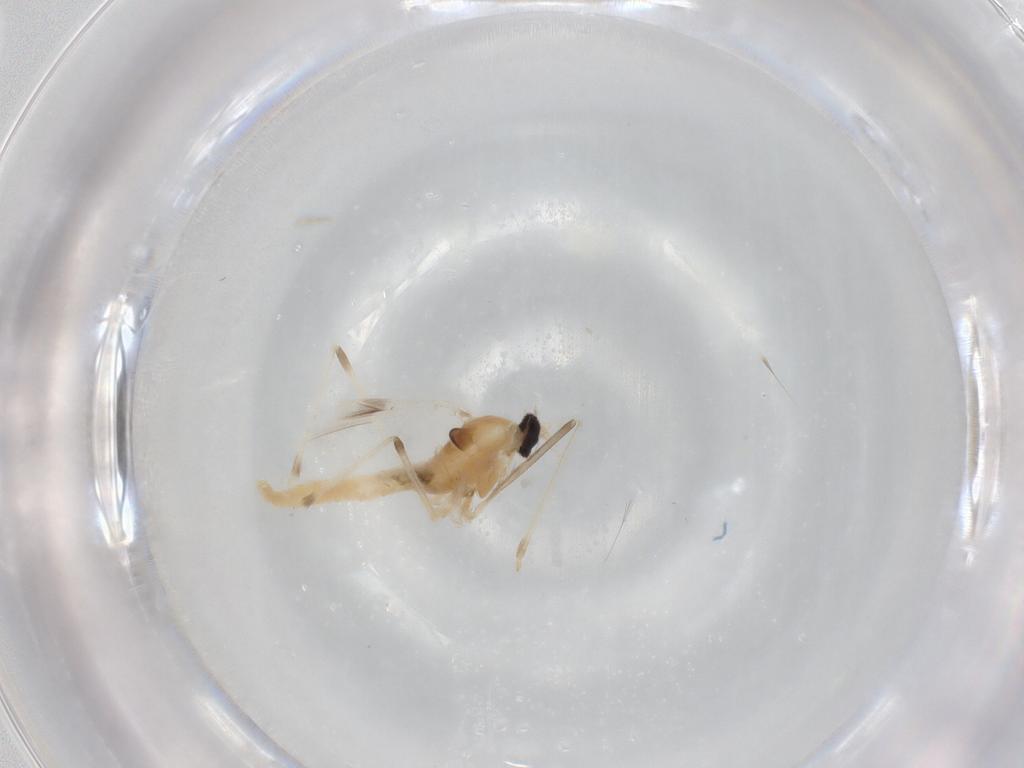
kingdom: Animalia
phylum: Arthropoda
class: Insecta
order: Diptera
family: Cecidomyiidae
